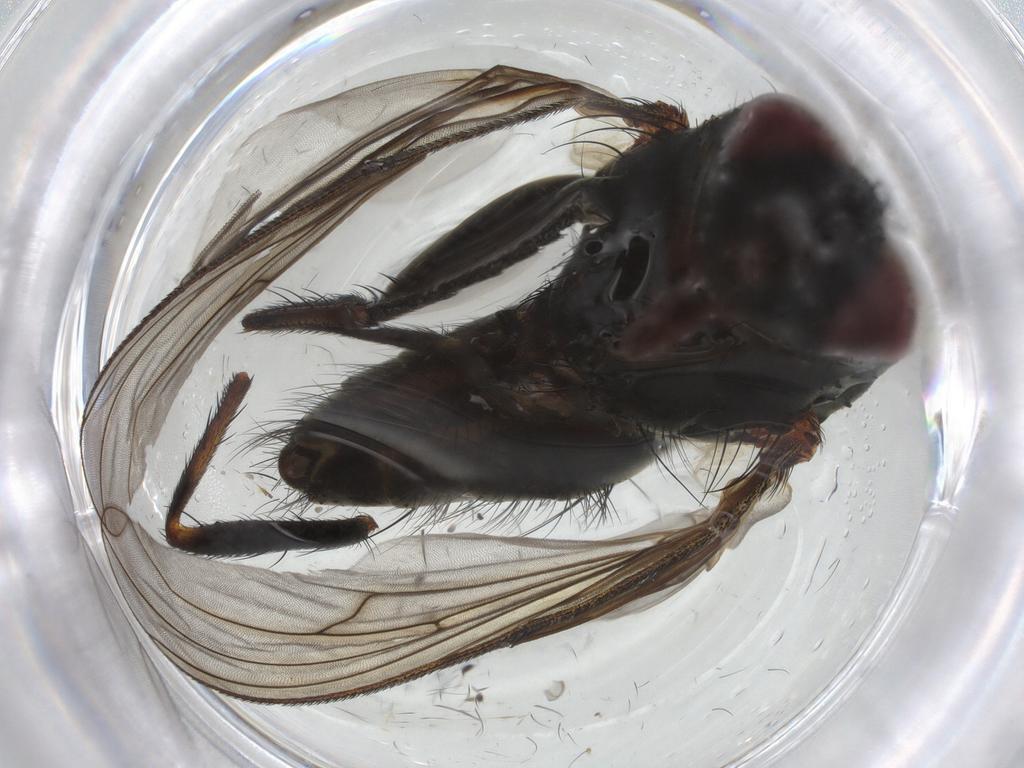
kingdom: Animalia
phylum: Arthropoda
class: Insecta
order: Diptera
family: Muscidae
